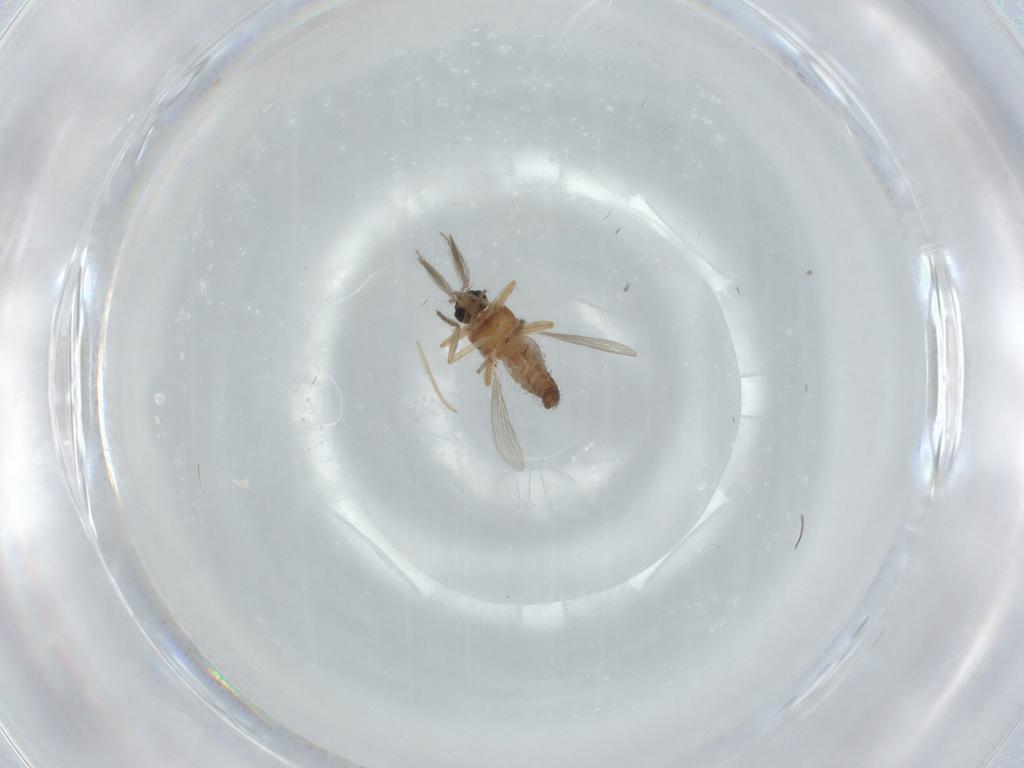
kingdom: Animalia
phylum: Arthropoda
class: Insecta
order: Diptera
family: Ceratopogonidae
